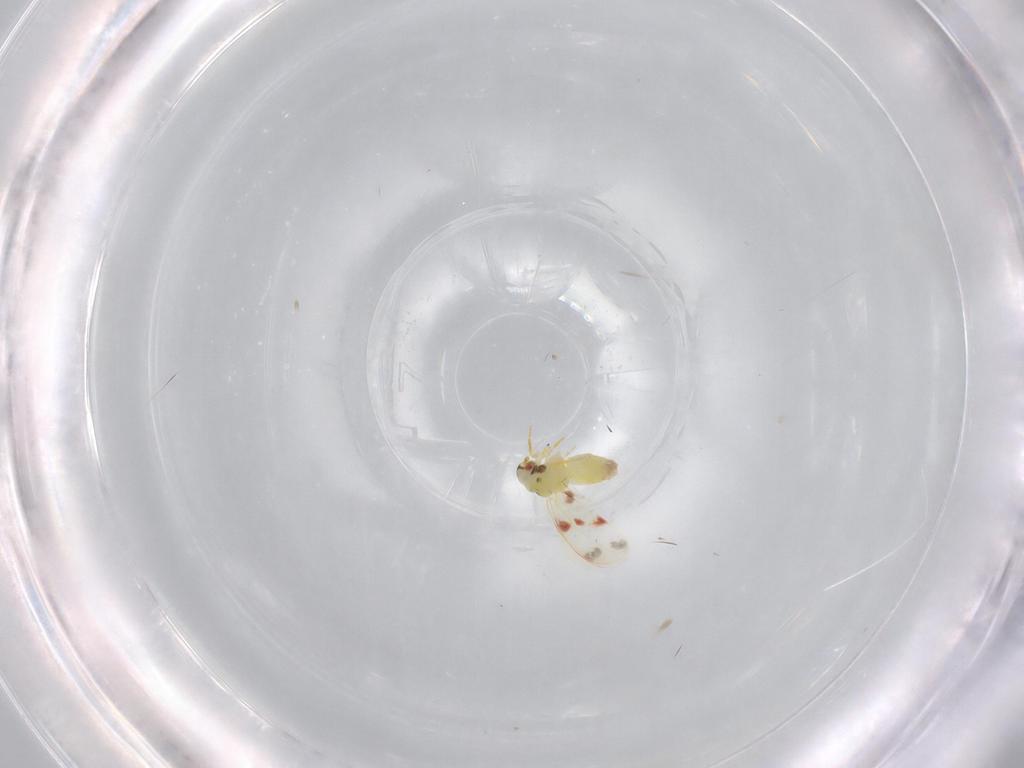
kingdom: Animalia
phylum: Arthropoda
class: Insecta
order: Hemiptera
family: Aleyrodidae
